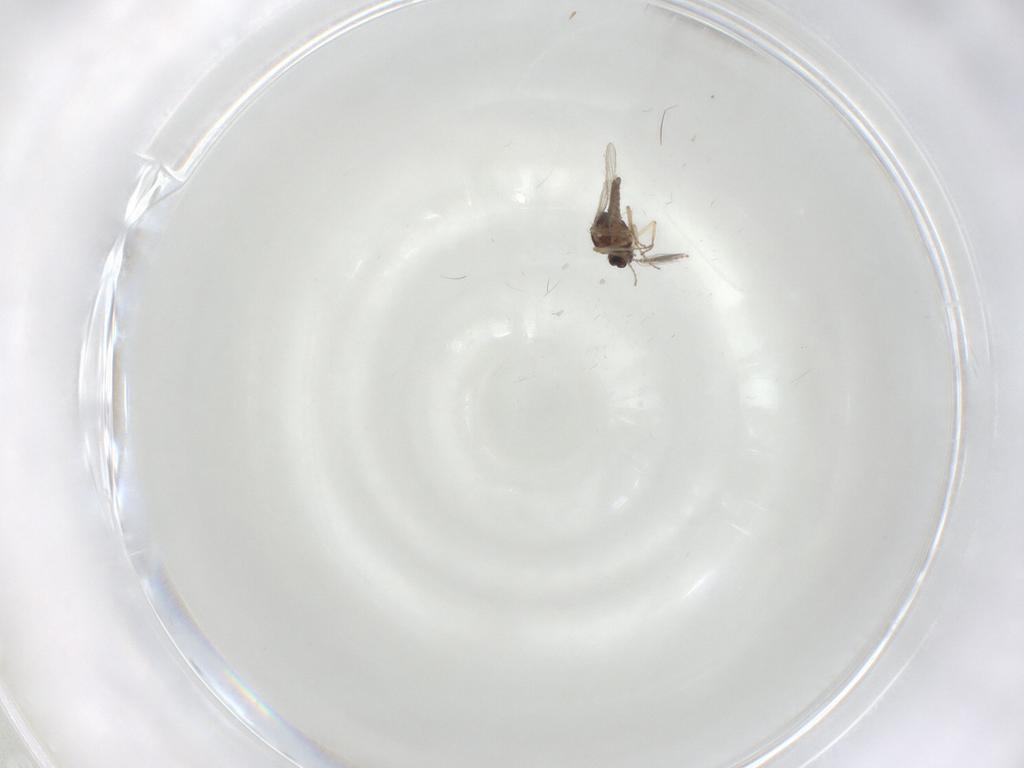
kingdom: Animalia
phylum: Arthropoda
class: Insecta
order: Diptera
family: Ceratopogonidae
